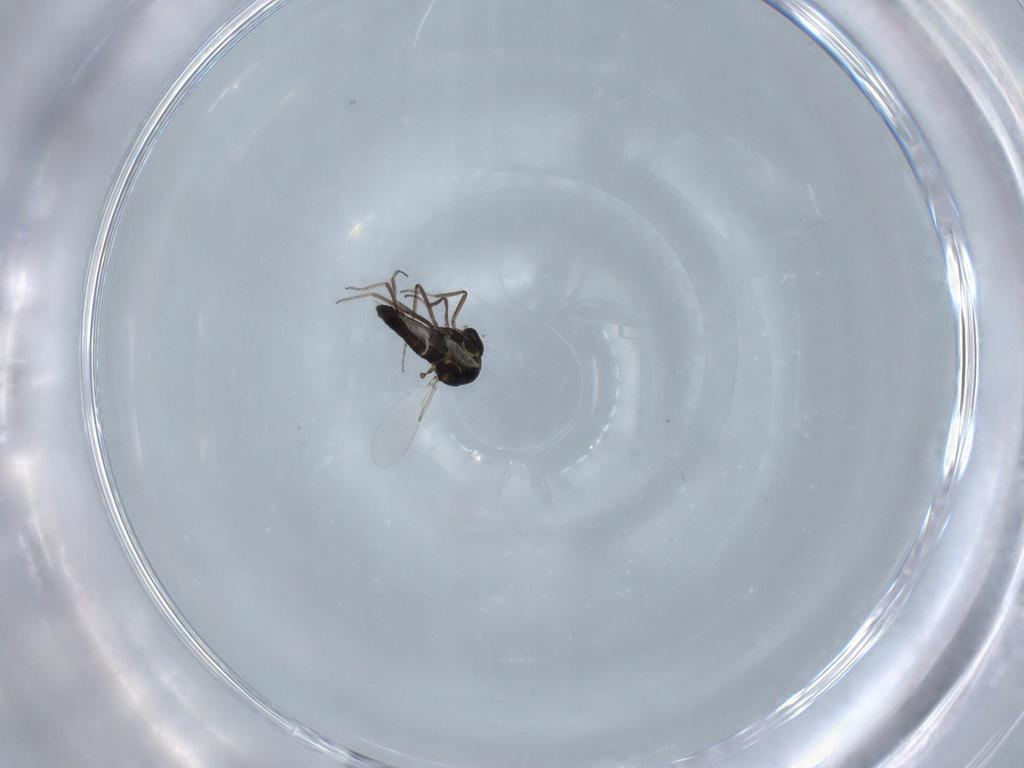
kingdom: Animalia
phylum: Arthropoda
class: Insecta
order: Diptera
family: Ceratopogonidae
